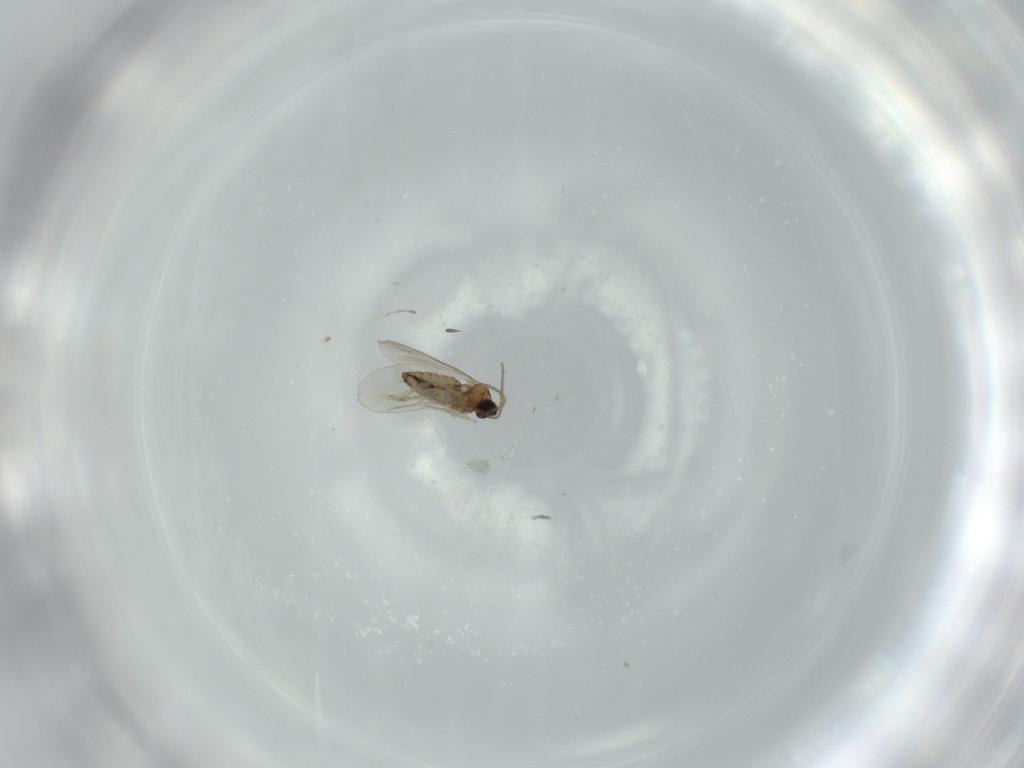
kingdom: Animalia
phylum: Arthropoda
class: Insecta
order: Diptera
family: Cecidomyiidae
